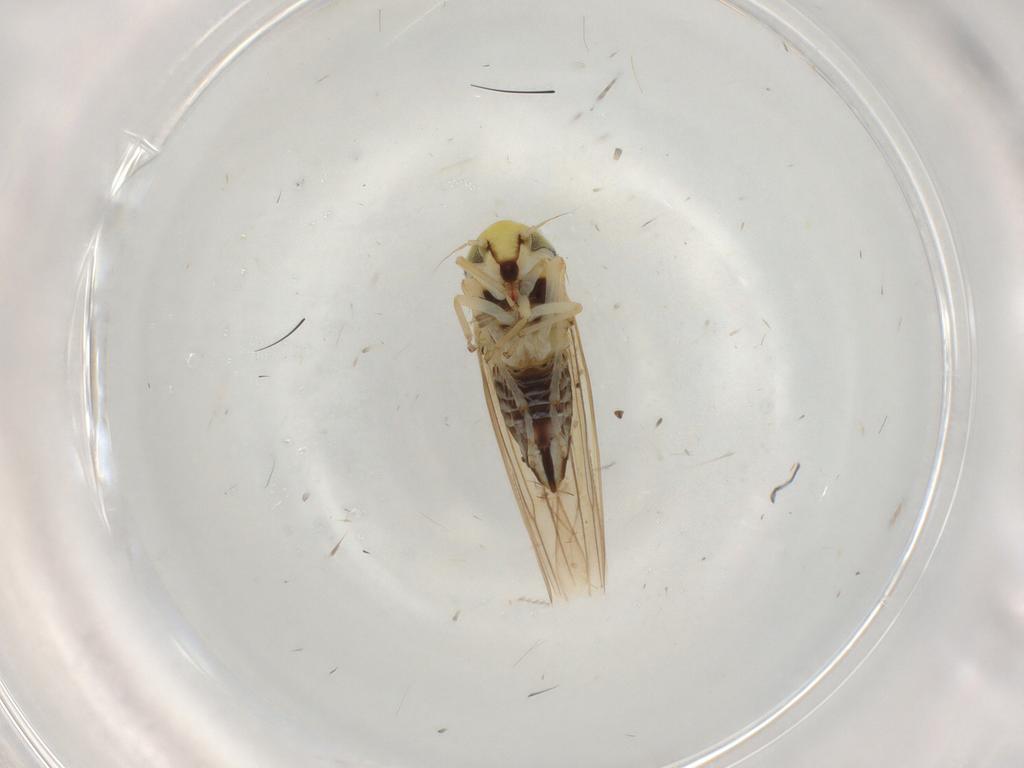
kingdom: Animalia
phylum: Arthropoda
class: Insecta
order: Hemiptera
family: Cicadellidae
